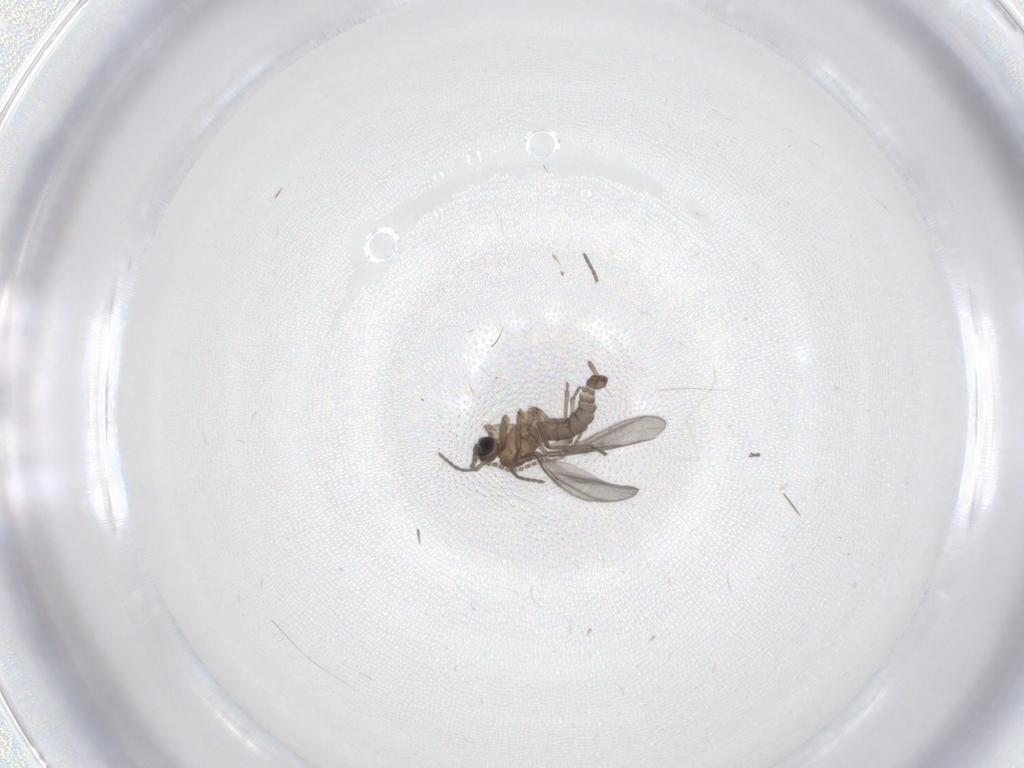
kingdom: Animalia
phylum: Arthropoda
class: Insecta
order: Diptera
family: Sciaridae
